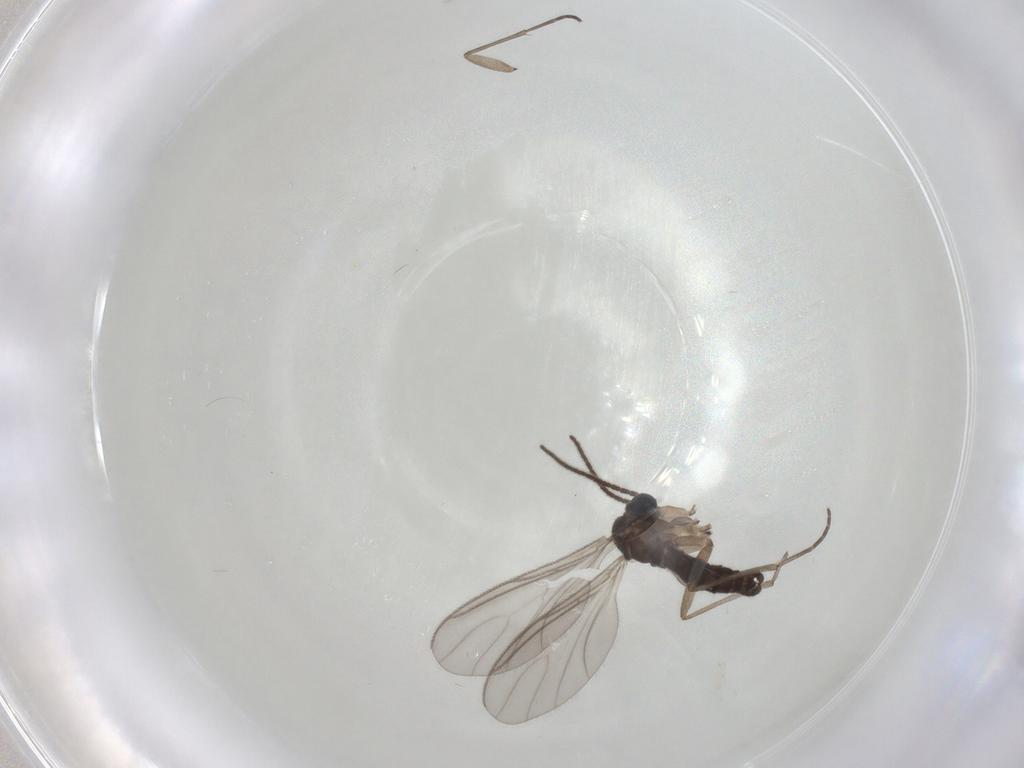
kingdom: Animalia
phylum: Arthropoda
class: Insecta
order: Diptera
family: Sciaridae
